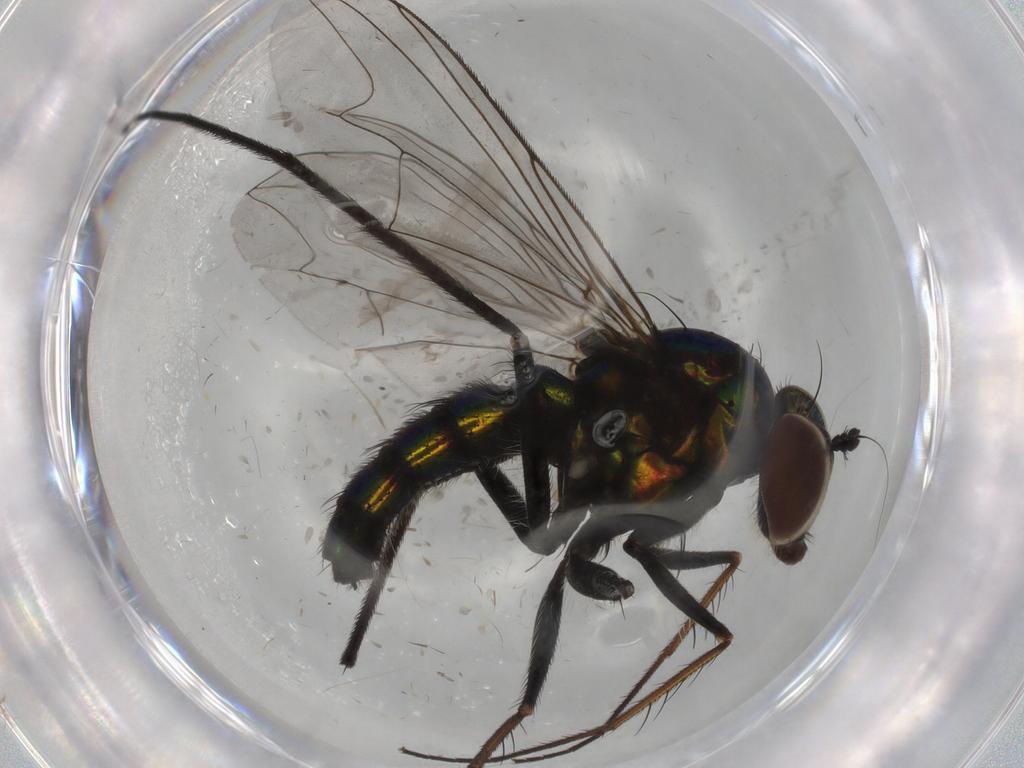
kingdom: Animalia
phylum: Arthropoda
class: Insecta
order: Diptera
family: Dolichopodidae
